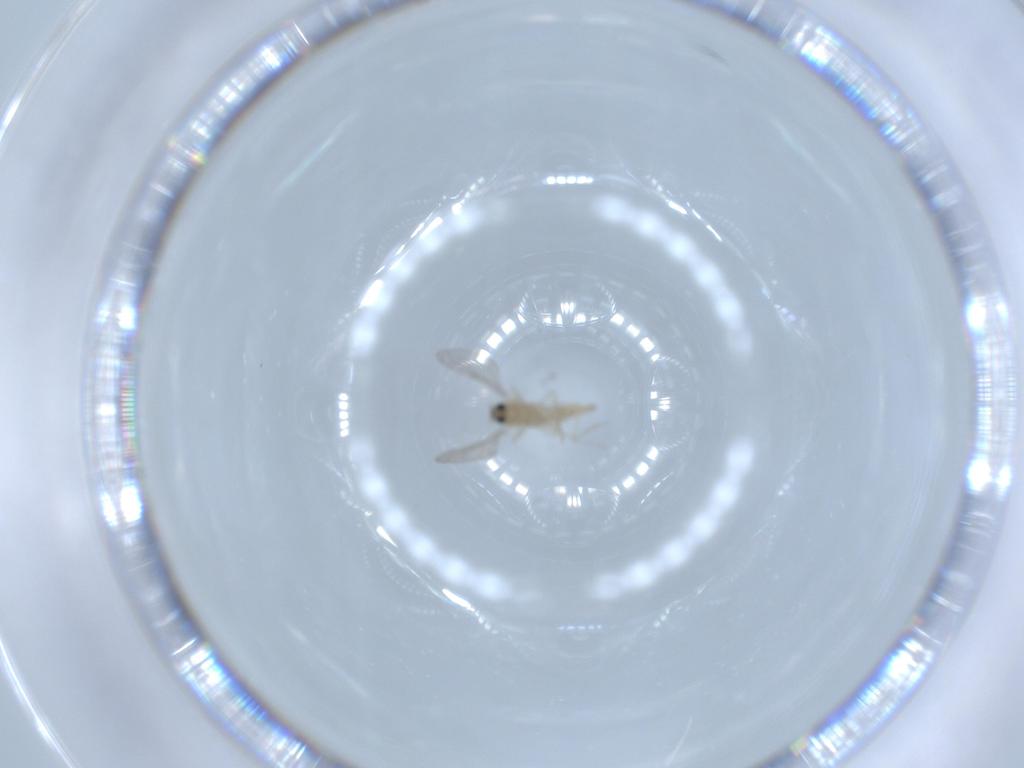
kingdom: Animalia
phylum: Arthropoda
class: Insecta
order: Diptera
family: Cecidomyiidae
